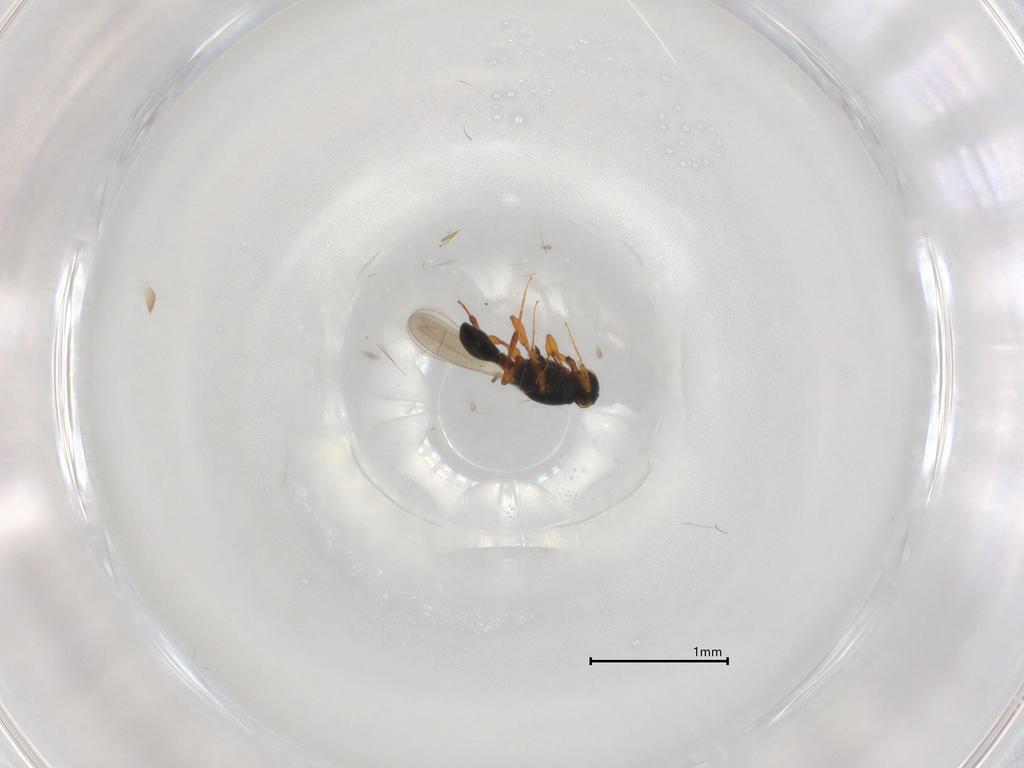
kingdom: Animalia
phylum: Arthropoda
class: Insecta
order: Hymenoptera
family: Platygastridae
